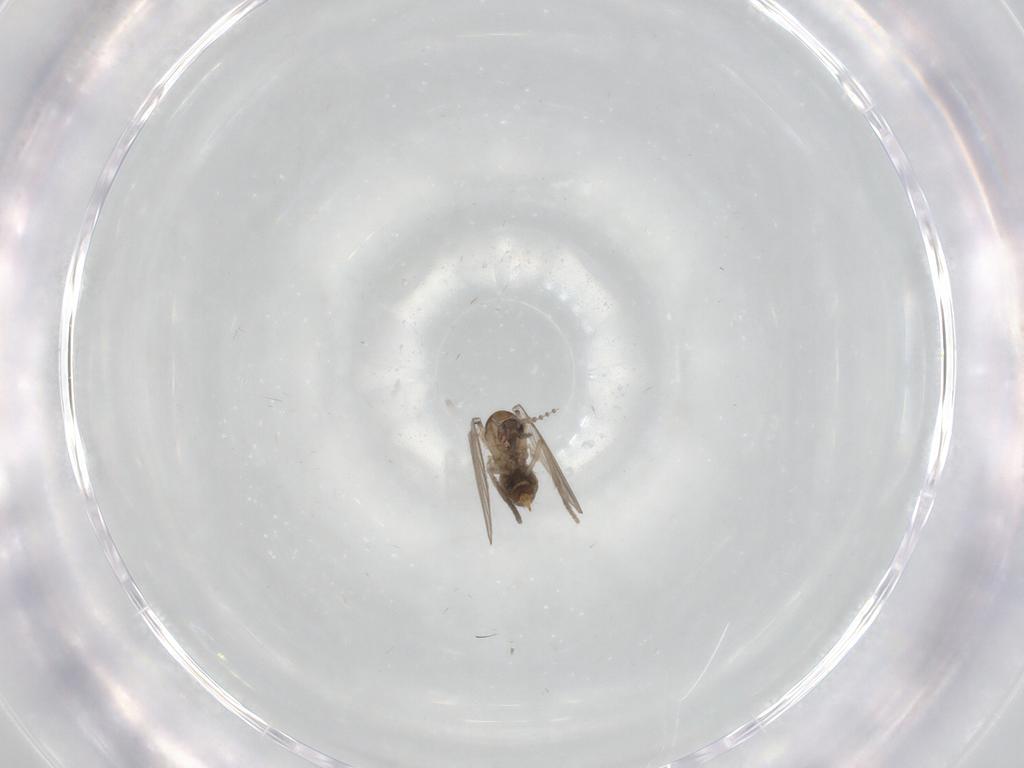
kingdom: Animalia
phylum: Arthropoda
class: Insecta
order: Diptera
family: Psychodidae
